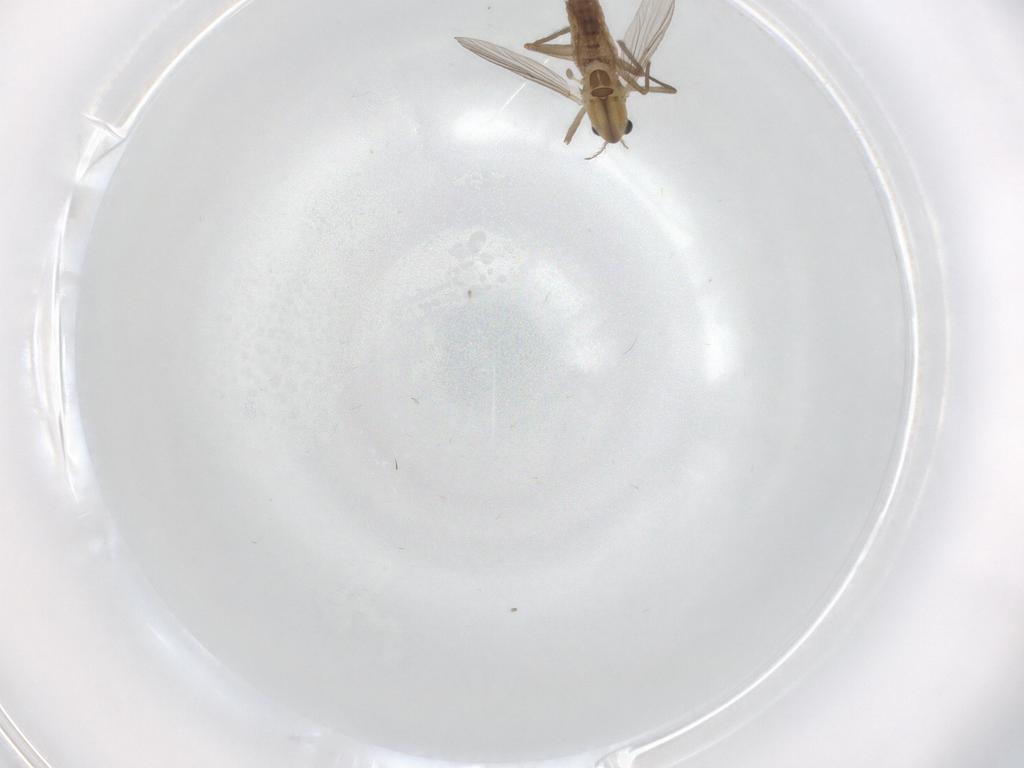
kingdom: Animalia
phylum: Arthropoda
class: Insecta
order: Diptera
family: Chironomidae
